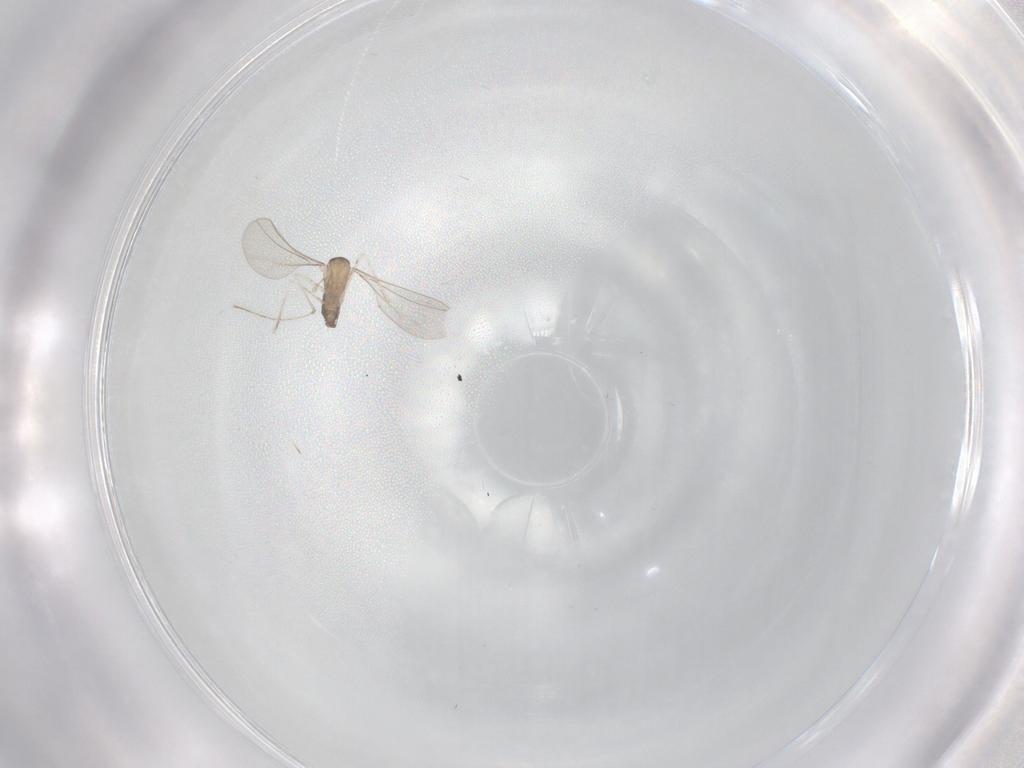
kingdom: Animalia
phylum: Arthropoda
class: Insecta
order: Diptera
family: Cecidomyiidae
